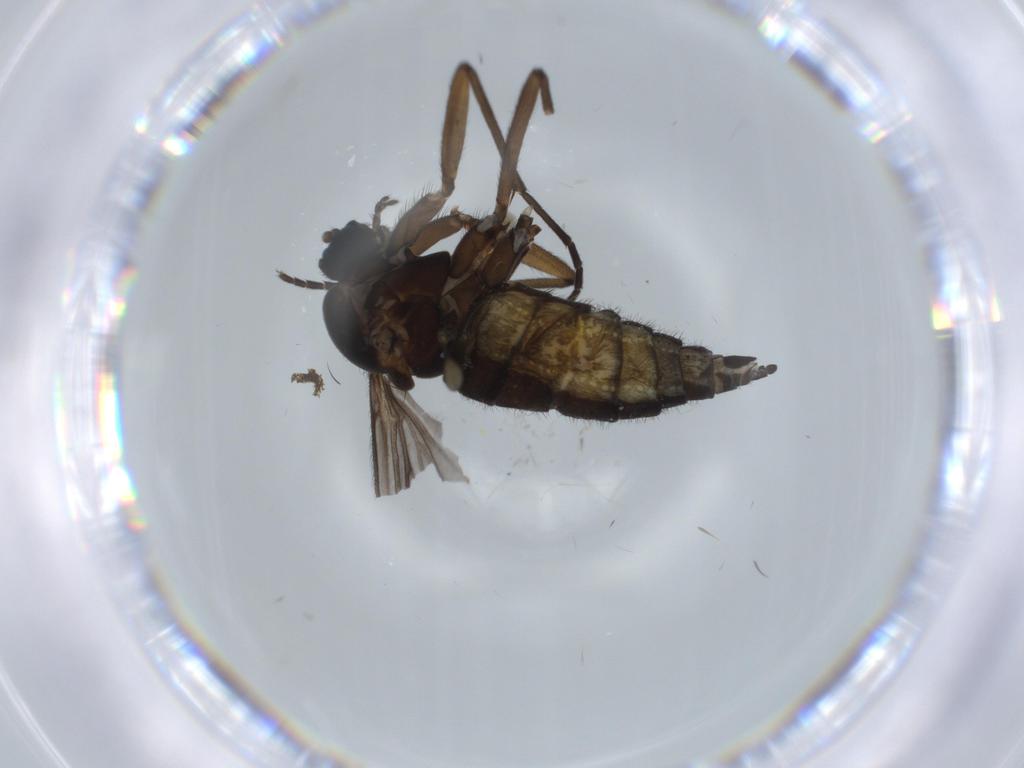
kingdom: Animalia
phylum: Arthropoda
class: Insecta
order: Diptera
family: Sciaridae
